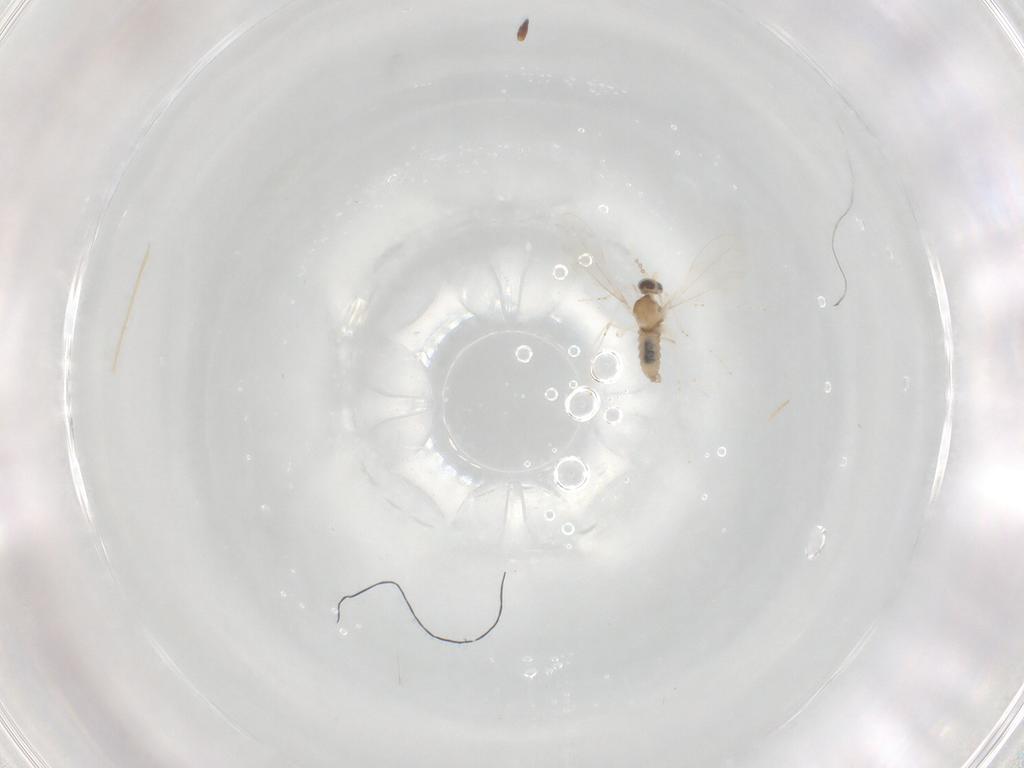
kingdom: Animalia
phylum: Arthropoda
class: Insecta
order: Diptera
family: Cecidomyiidae
